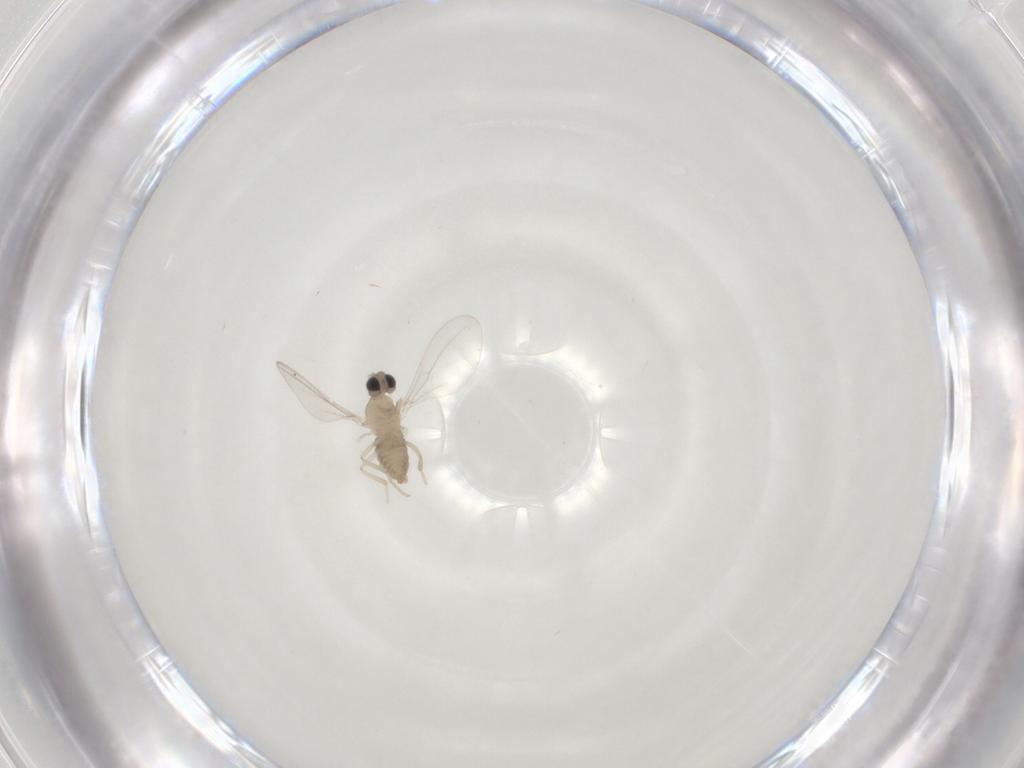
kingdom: Animalia
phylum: Arthropoda
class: Insecta
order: Diptera
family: Cecidomyiidae
